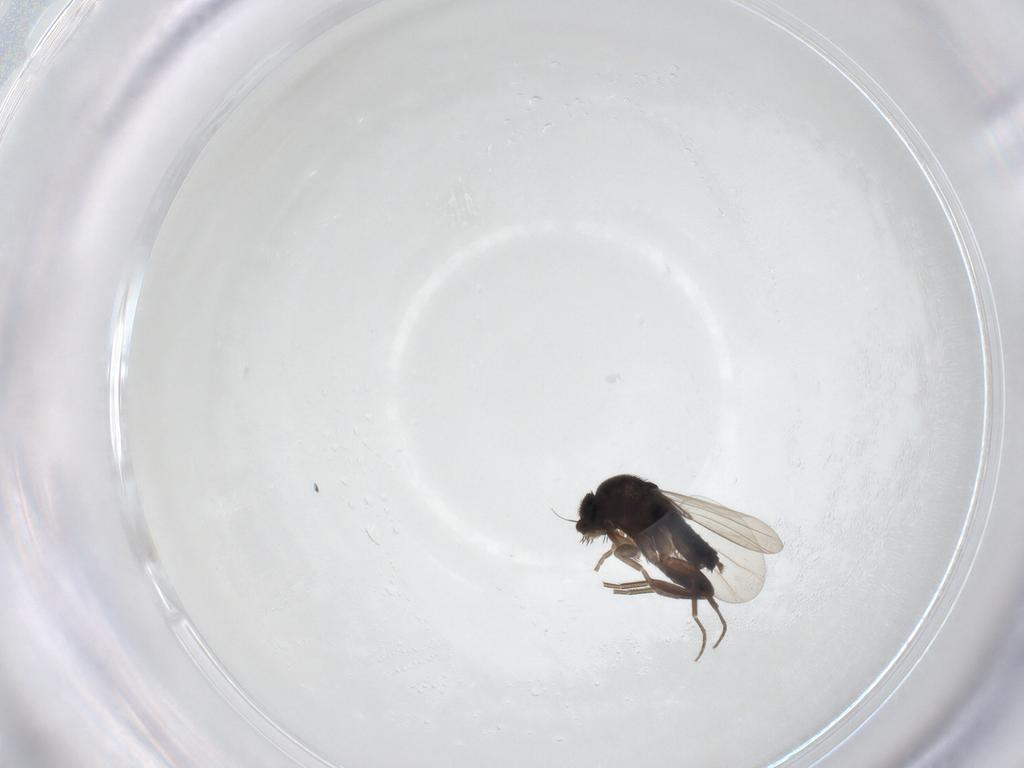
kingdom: Animalia
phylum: Arthropoda
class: Insecta
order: Diptera
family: Phoridae
